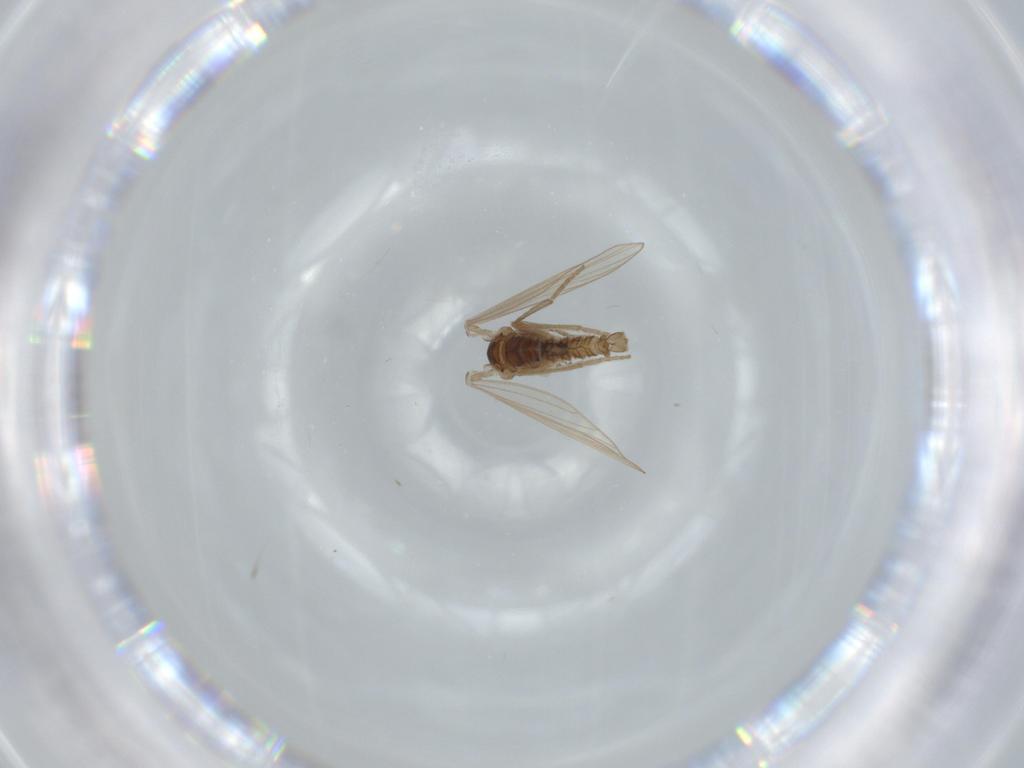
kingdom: Animalia
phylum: Arthropoda
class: Insecta
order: Diptera
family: Psychodidae
